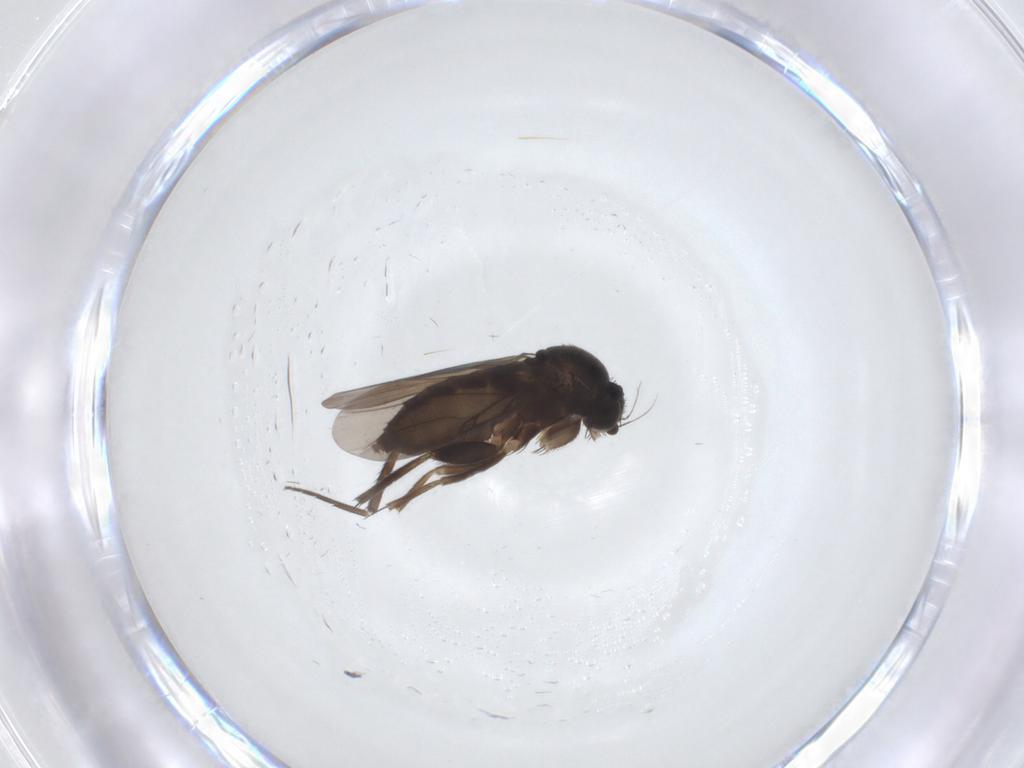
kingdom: Animalia
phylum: Arthropoda
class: Insecta
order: Diptera
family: Phoridae
